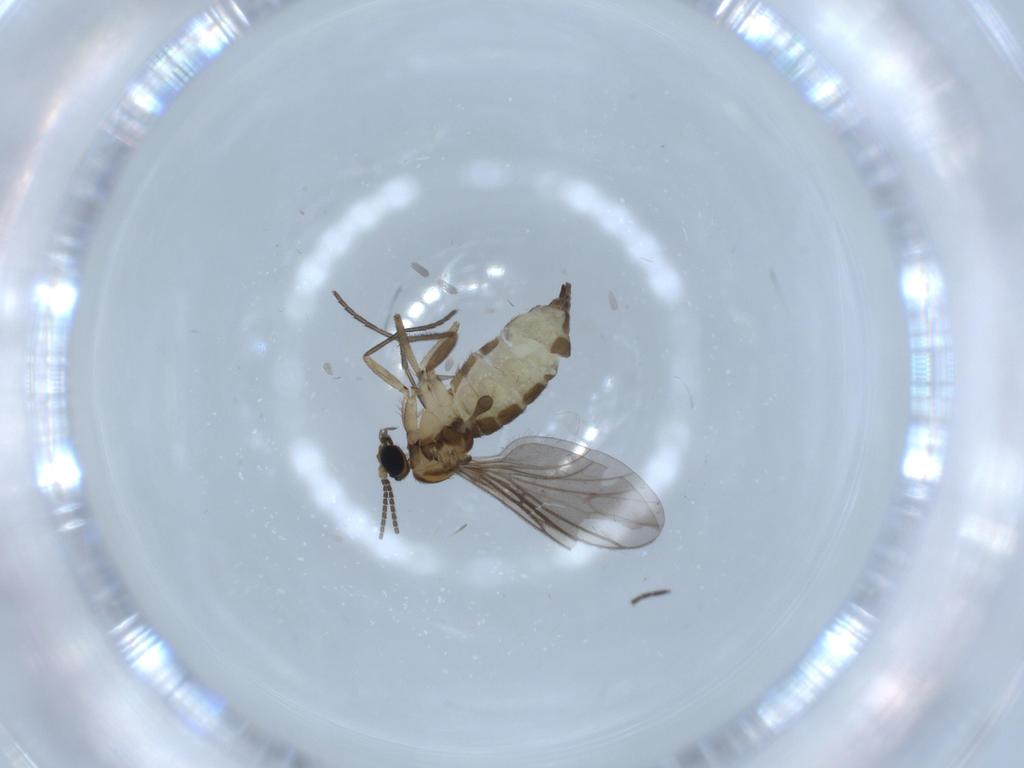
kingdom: Animalia
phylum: Arthropoda
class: Insecta
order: Diptera
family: Sciaridae
